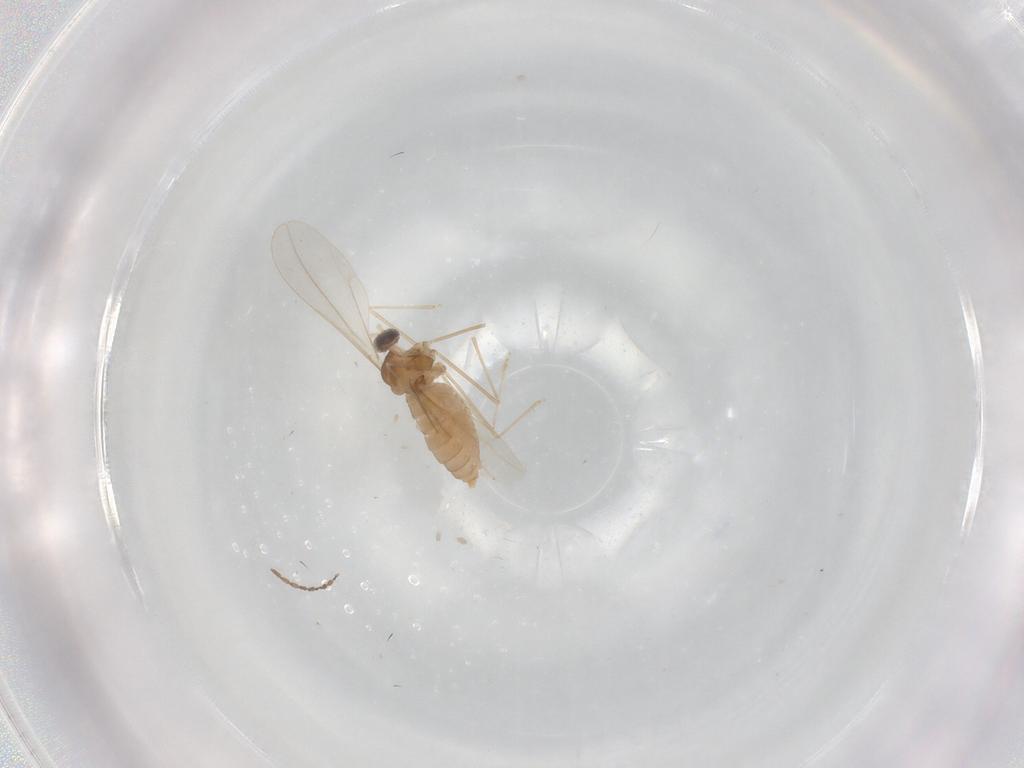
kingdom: Animalia
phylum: Arthropoda
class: Insecta
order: Diptera
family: Cecidomyiidae
